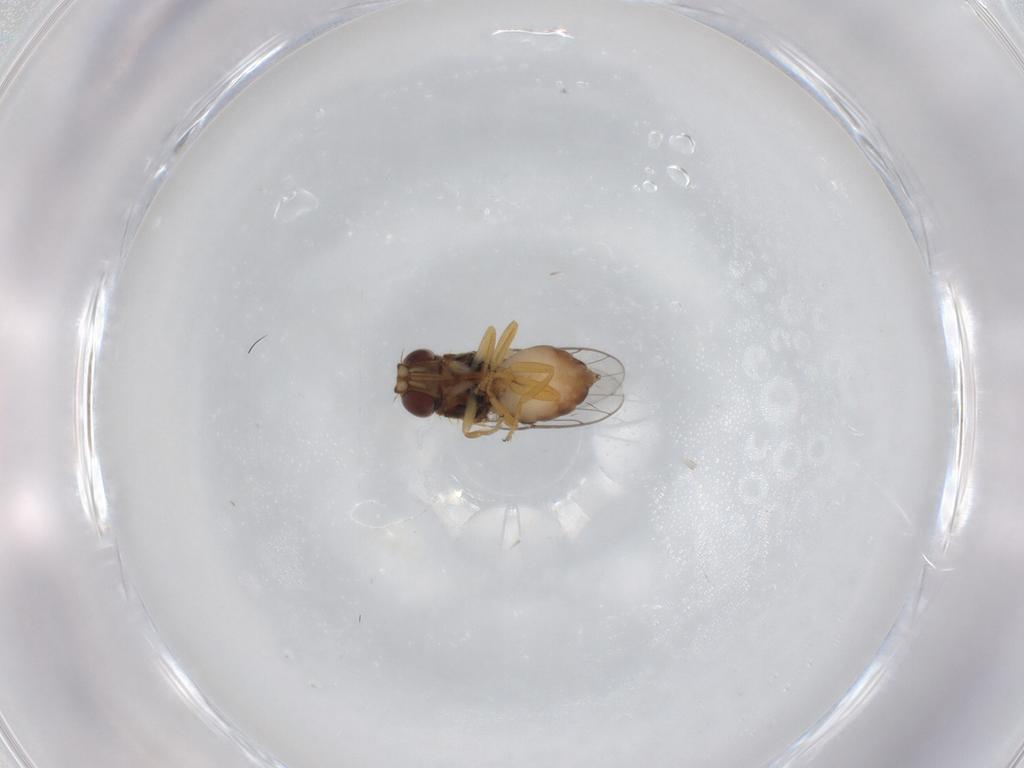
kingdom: Animalia
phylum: Arthropoda
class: Insecta
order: Diptera
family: Chloropidae
